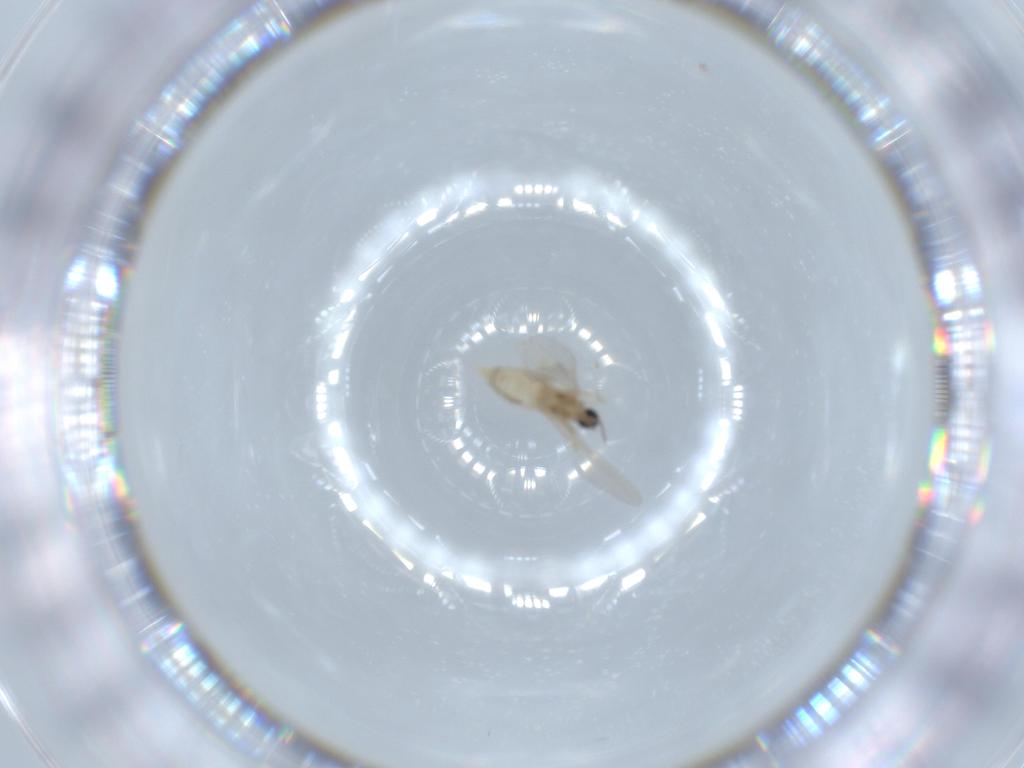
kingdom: Animalia
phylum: Arthropoda
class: Insecta
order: Diptera
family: Cecidomyiidae
